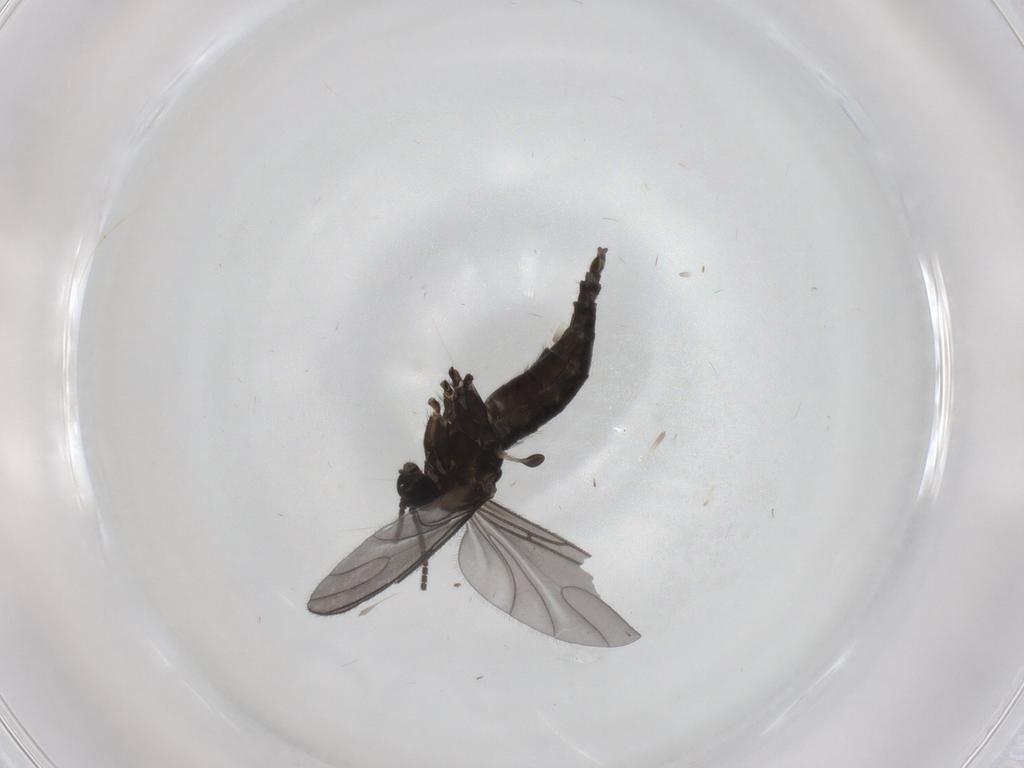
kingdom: Animalia
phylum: Arthropoda
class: Insecta
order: Diptera
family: Sciaridae
